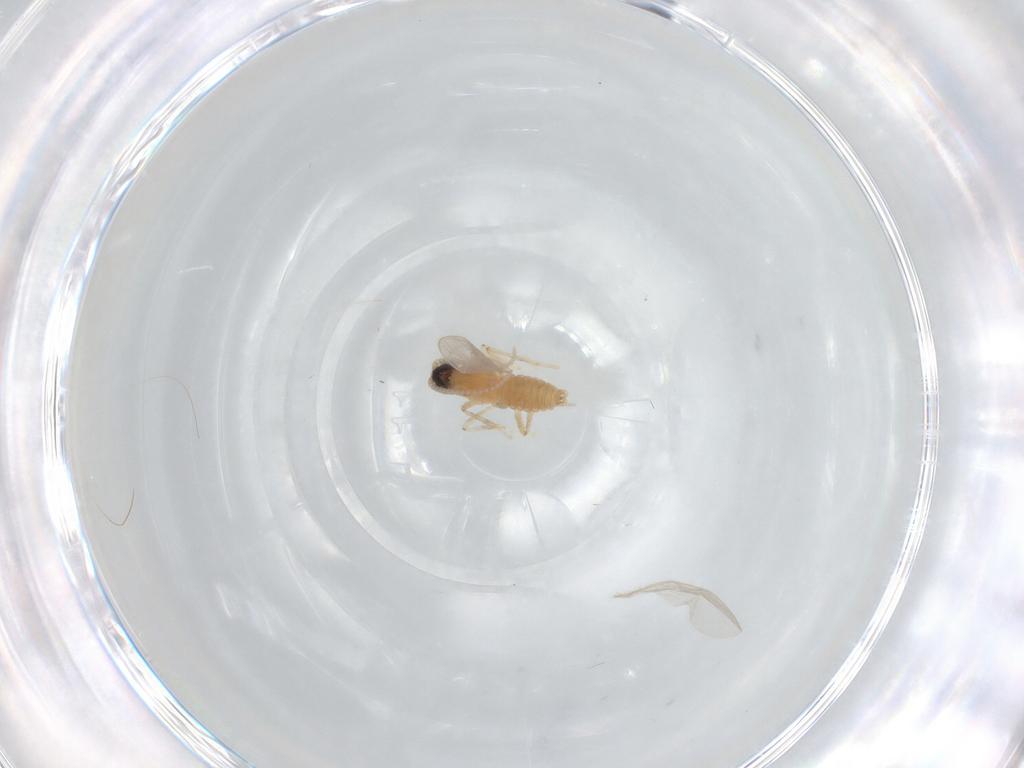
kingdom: Animalia
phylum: Arthropoda
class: Insecta
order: Diptera
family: Cecidomyiidae
